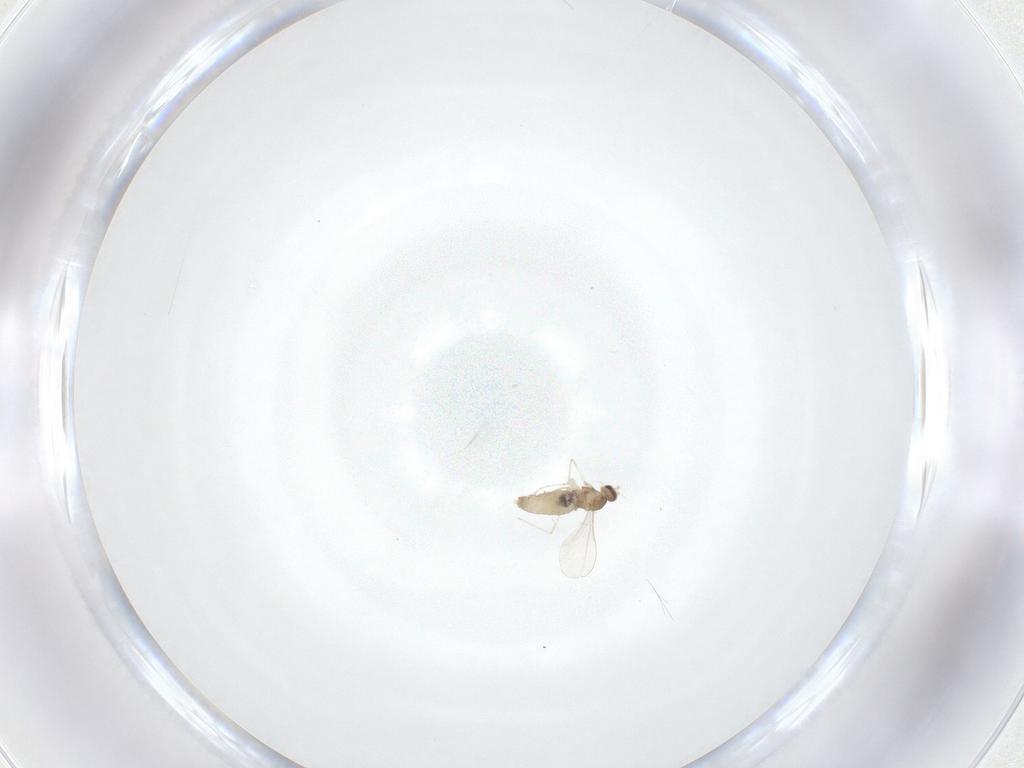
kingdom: Animalia
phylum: Arthropoda
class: Insecta
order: Diptera
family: Cecidomyiidae
